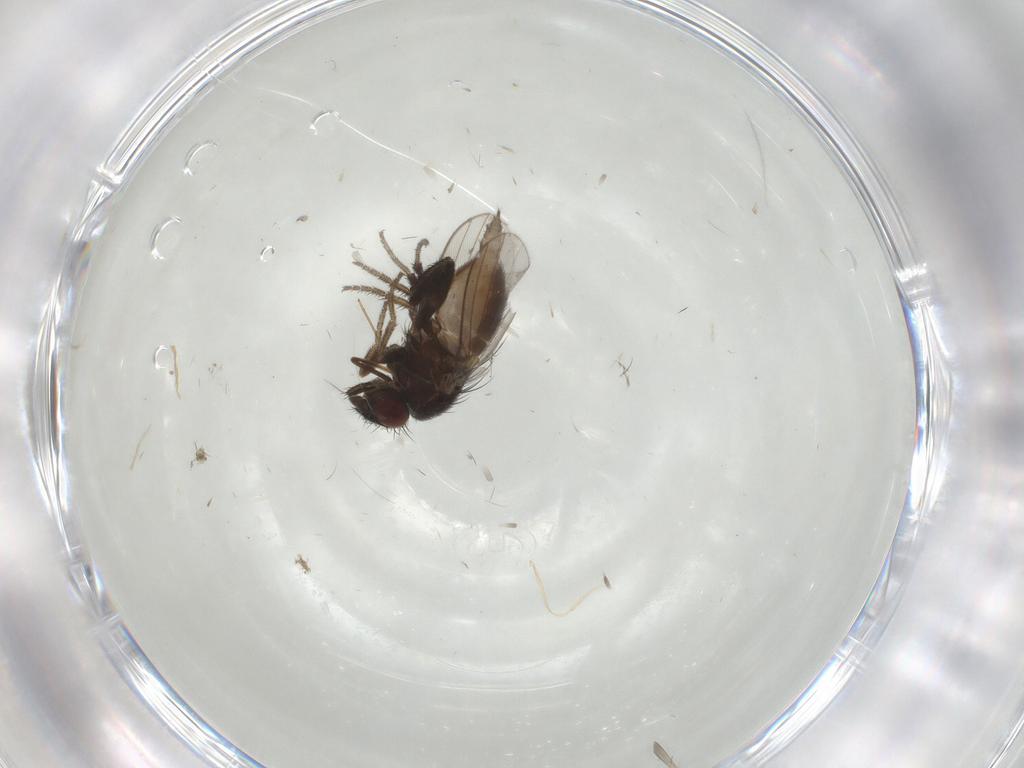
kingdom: Animalia
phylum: Arthropoda
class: Insecta
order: Diptera
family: Milichiidae
